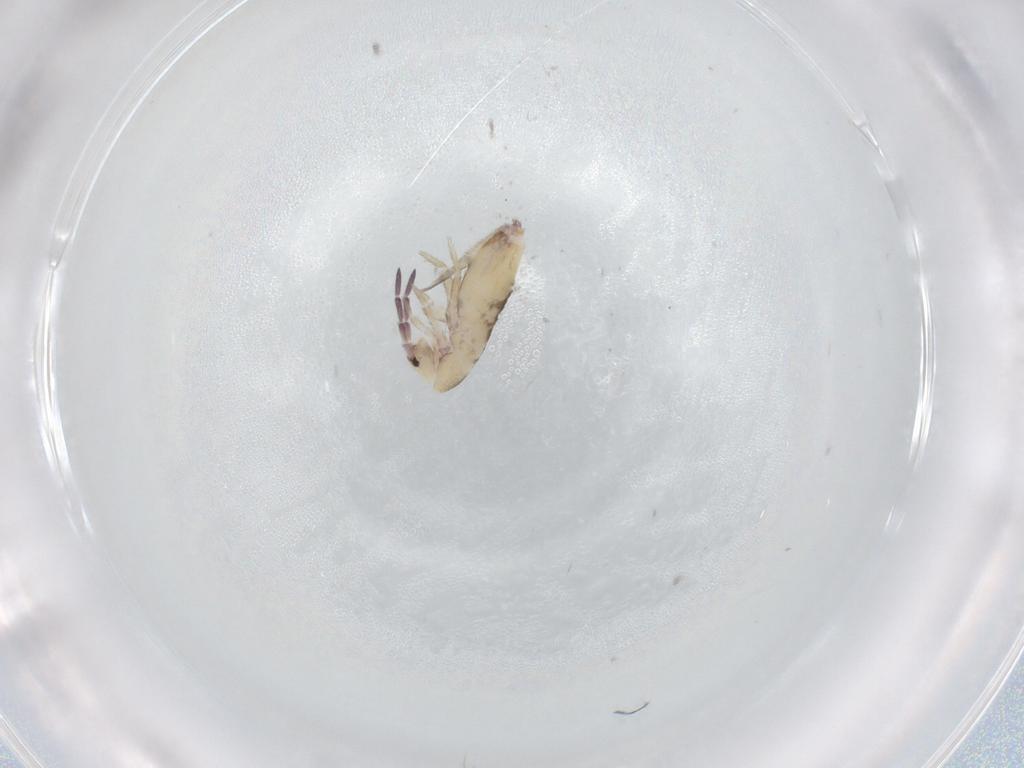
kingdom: Animalia
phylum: Arthropoda
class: Collembola
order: Entomobryomorpha
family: Entomobryidae
